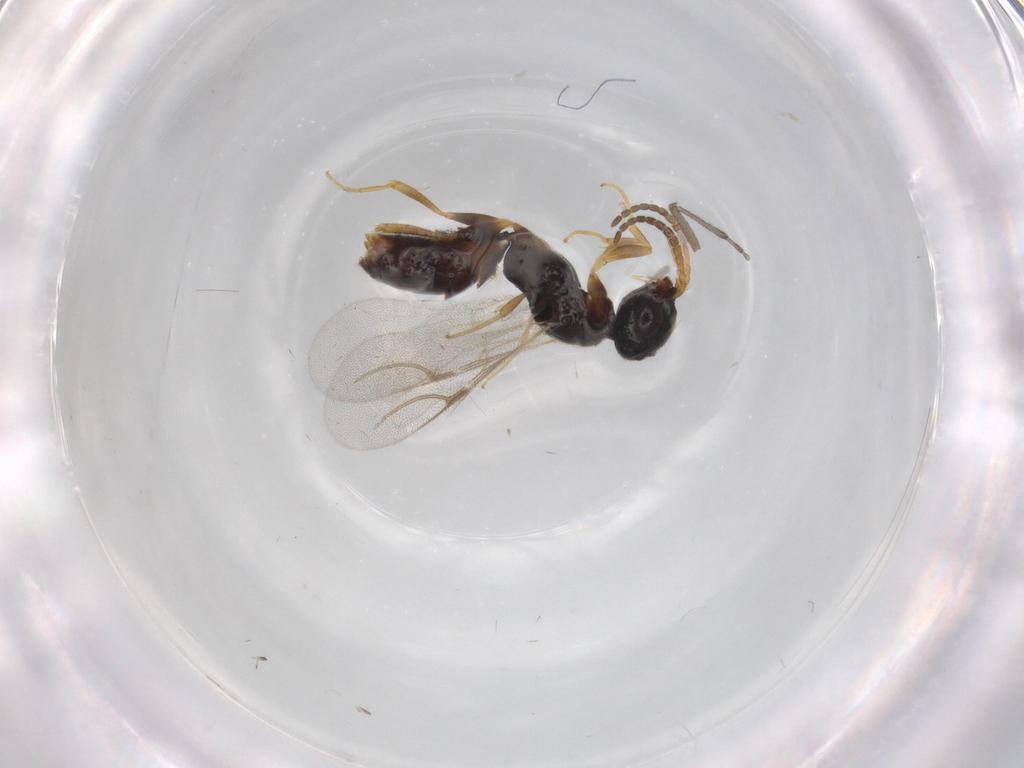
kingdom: Animalia
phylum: Arthropoda
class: Insecta
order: Hymenoptera
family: Bethylidae
